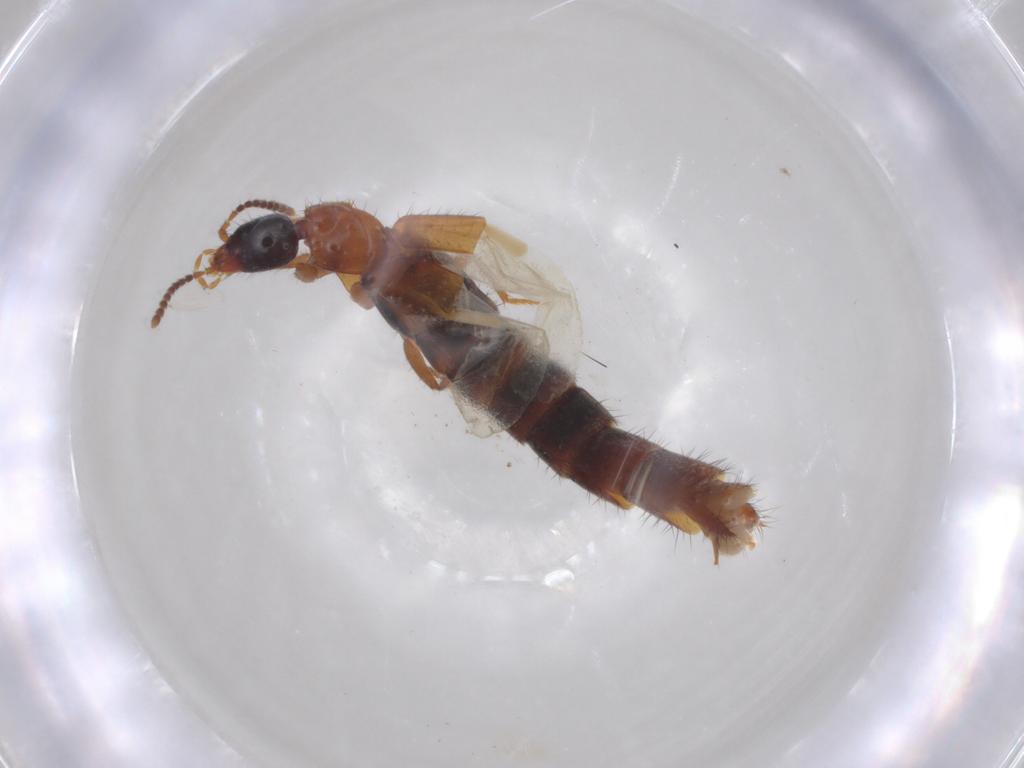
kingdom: Animalia
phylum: Arthropoda
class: Insecta
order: Coleoptera
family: Staphylinidae
